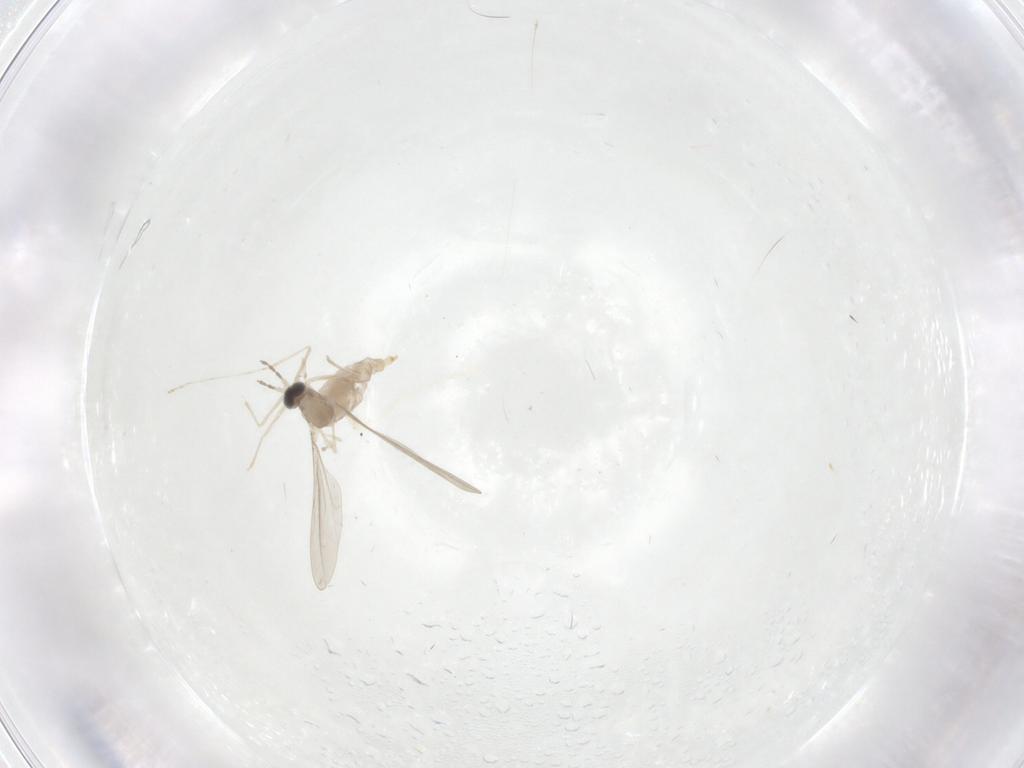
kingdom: Animalia
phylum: Arthropoda
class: Insecta
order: Diptera
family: Cecidomyiidae
